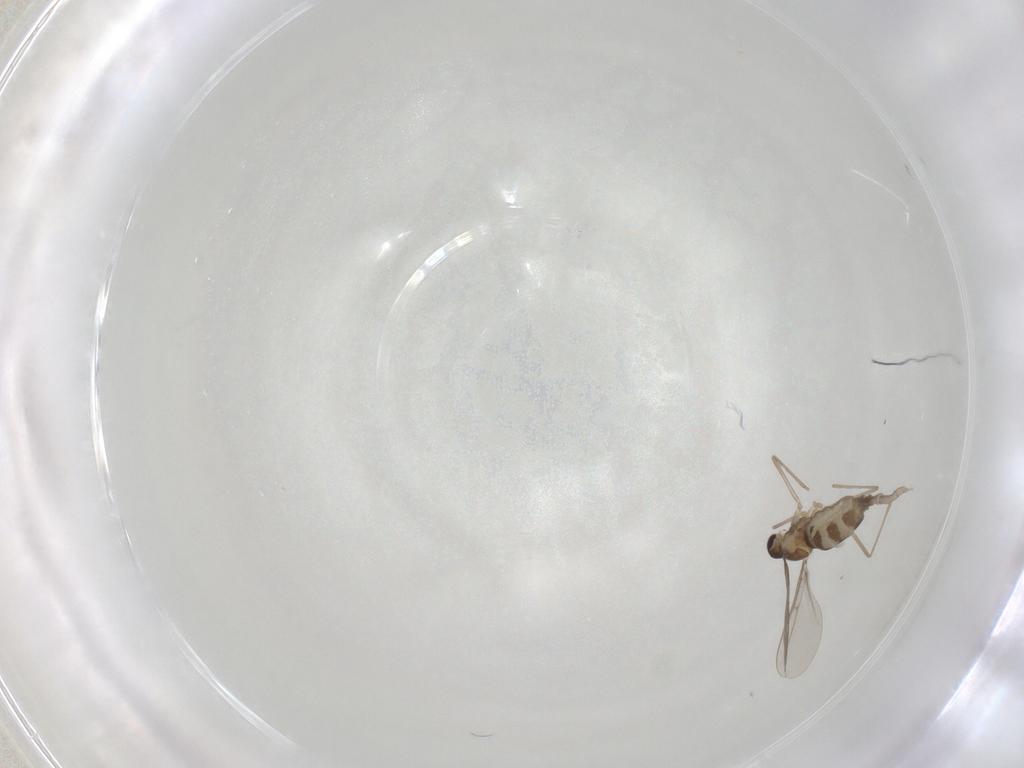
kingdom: Animalia
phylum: Arthropoda
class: Insecta
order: Diptera
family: Cecidomyiidae
